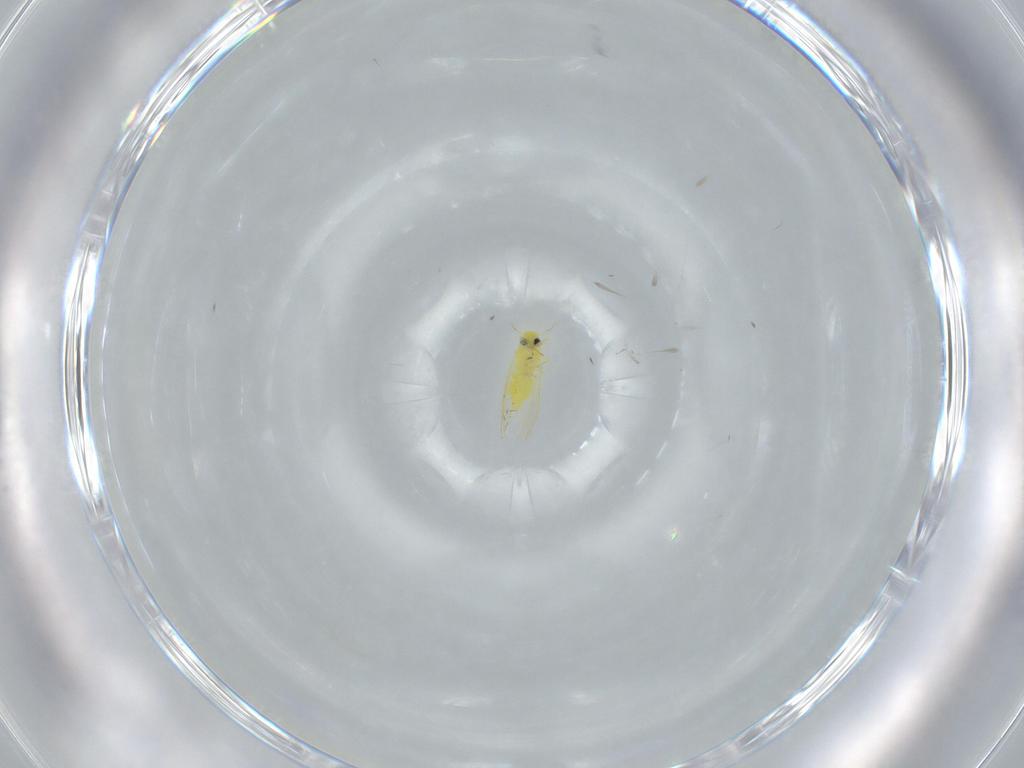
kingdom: Animalia
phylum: Arthropoda
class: Insecta
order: Hemiptera
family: Aleyrodidae
